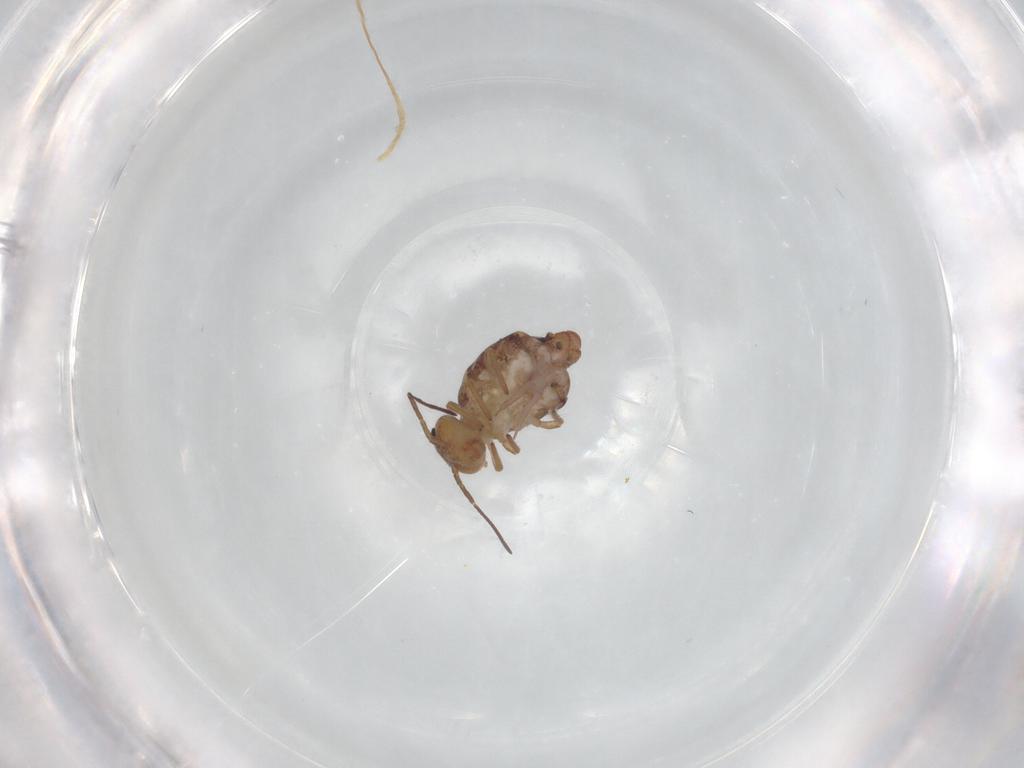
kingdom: Animalia
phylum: Arthropoda
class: Collembola
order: Symphypleona
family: Sminthuridae
